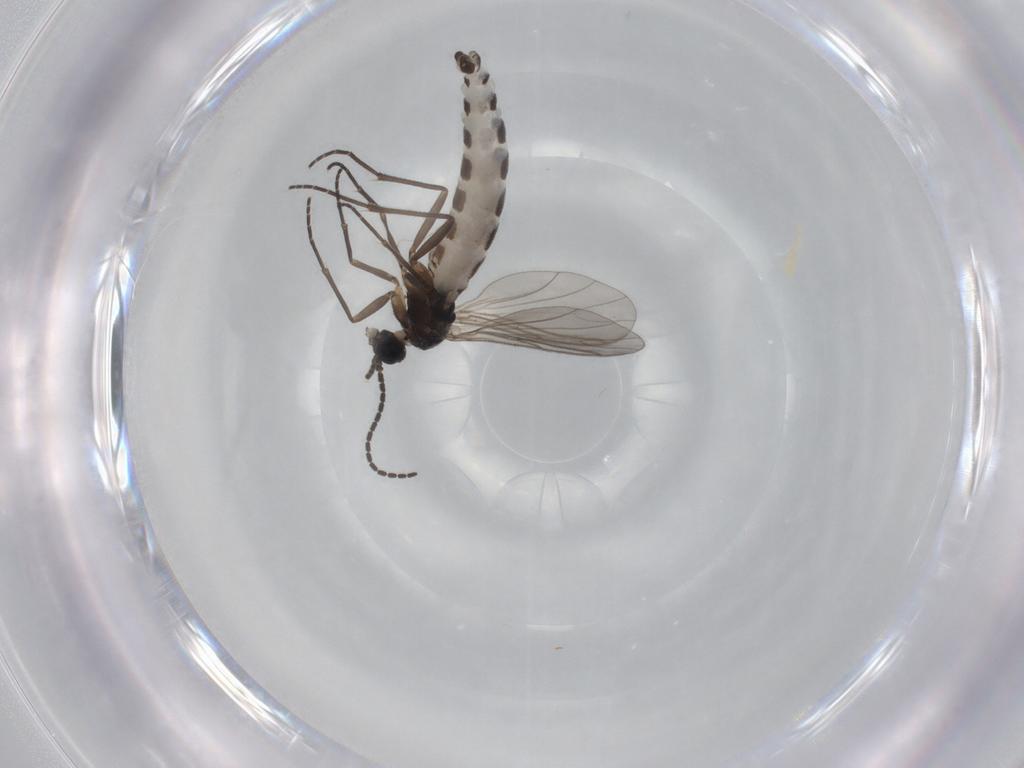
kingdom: Animalia
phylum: Arthropoda
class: Insecta
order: Diptera
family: Sciaridae
